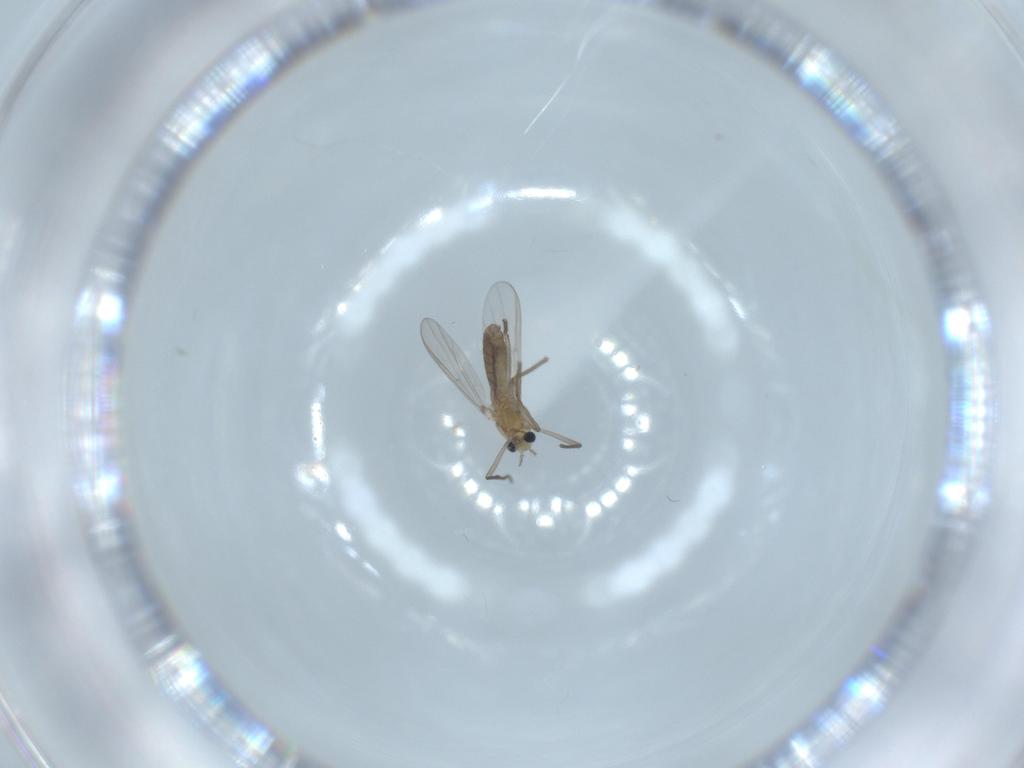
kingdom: Animalia
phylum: Arthropoda
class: Insecta
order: Diptera
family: Chironomidae
